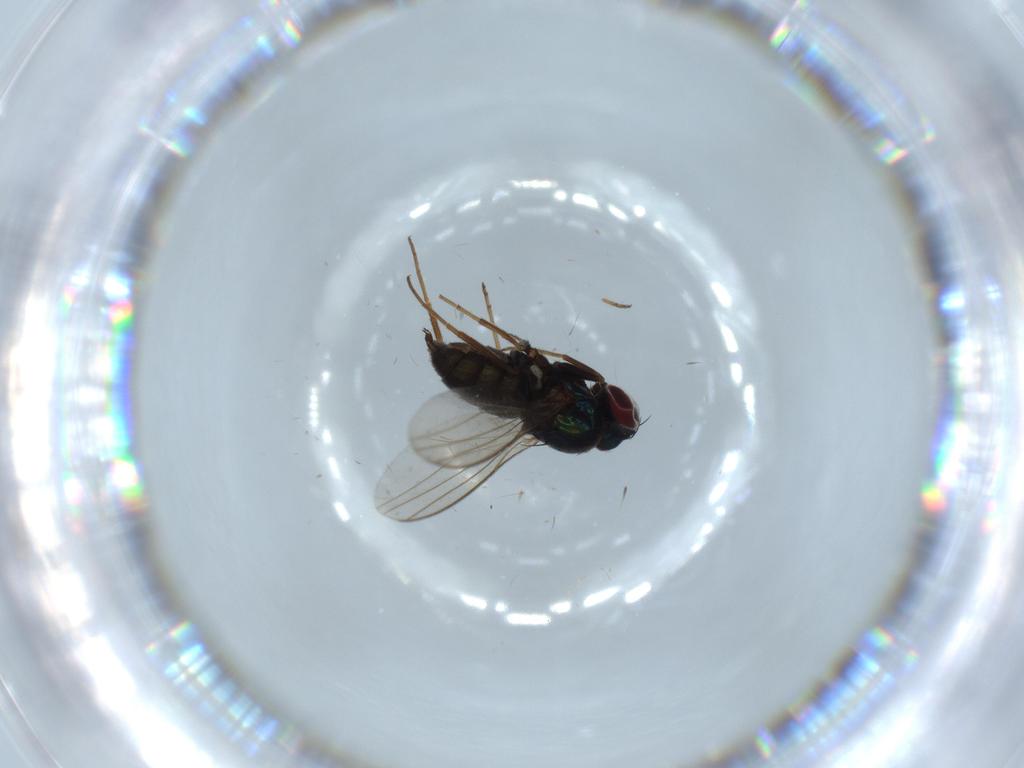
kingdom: Animalia
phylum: Arthropoda
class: Insecta
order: Diptera
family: Dolichopodidae
